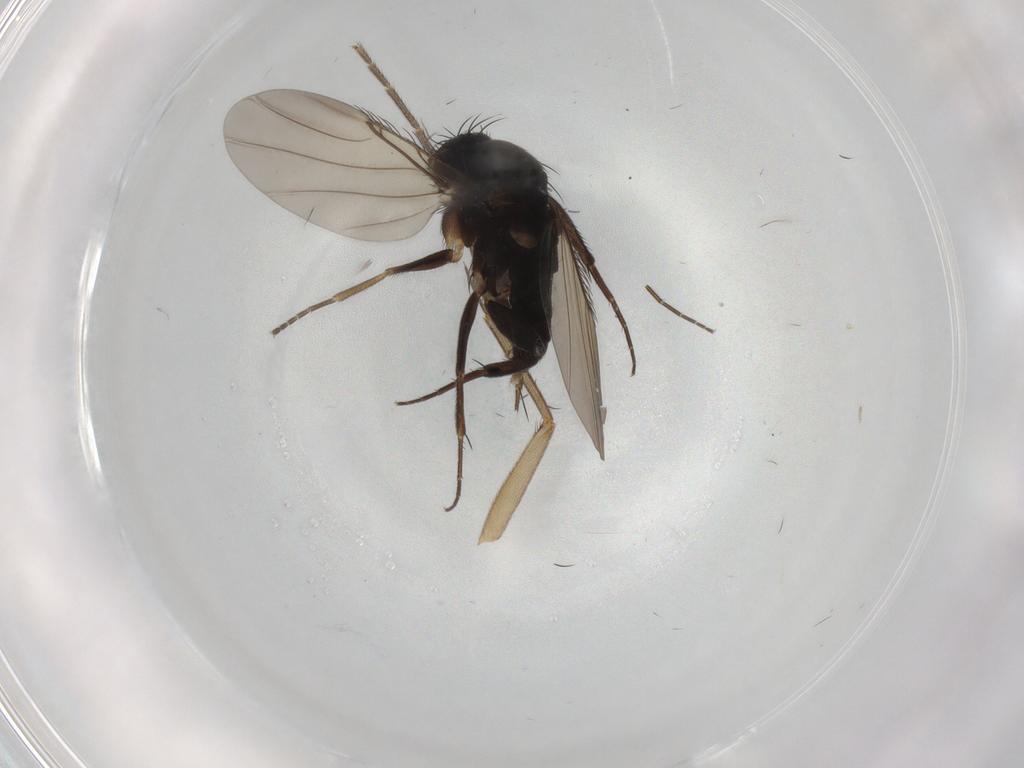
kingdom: Animalia
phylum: Arthropoda
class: Insecta
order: Diptera
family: Phoridae
